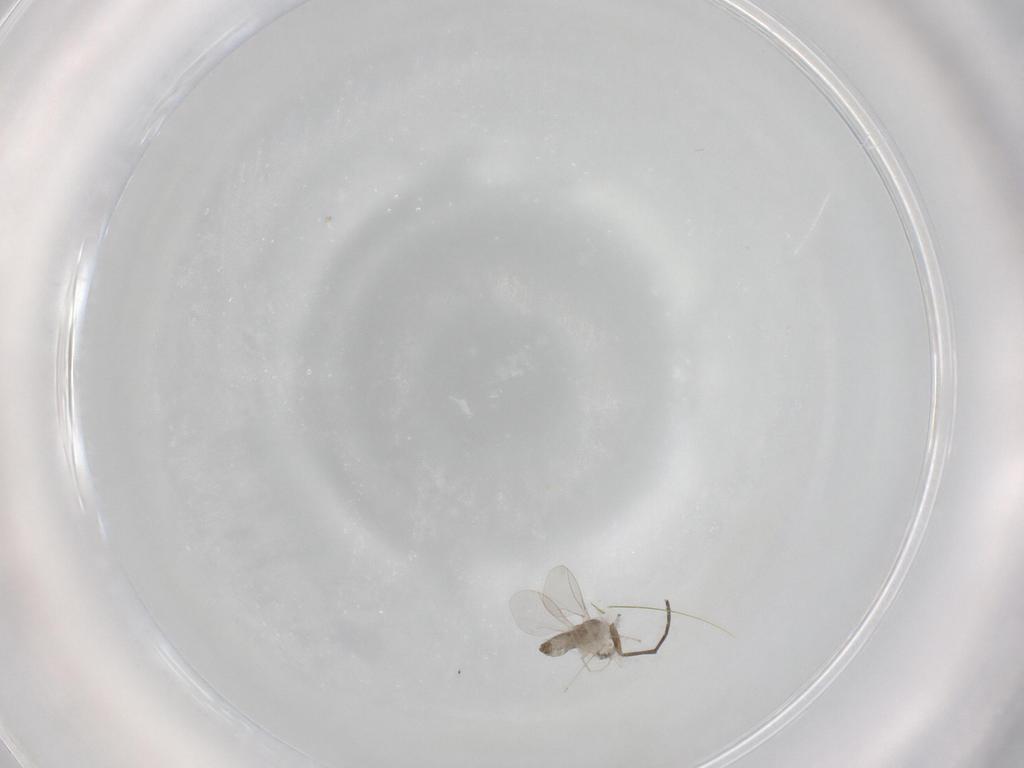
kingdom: Animalia
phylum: Arthropoda
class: Insecta
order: Diptera
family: Cecidomyiidae
